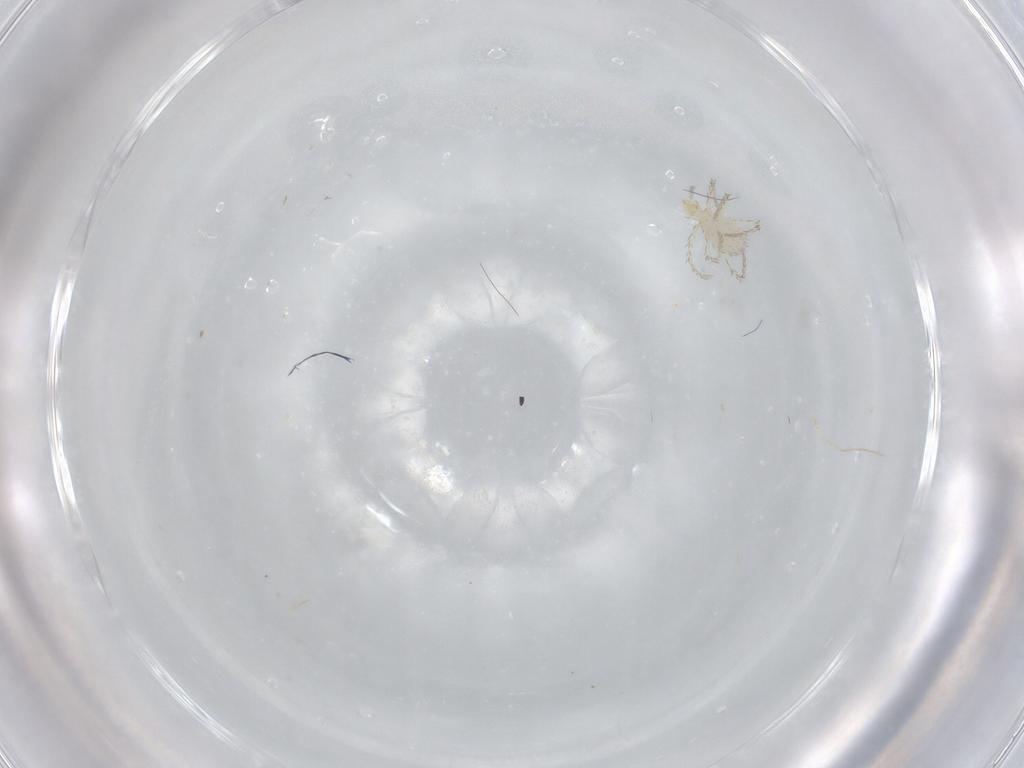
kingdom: Animalia
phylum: Arthropoda
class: Arachnida
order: Trombidiformes
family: Erythraeidae
